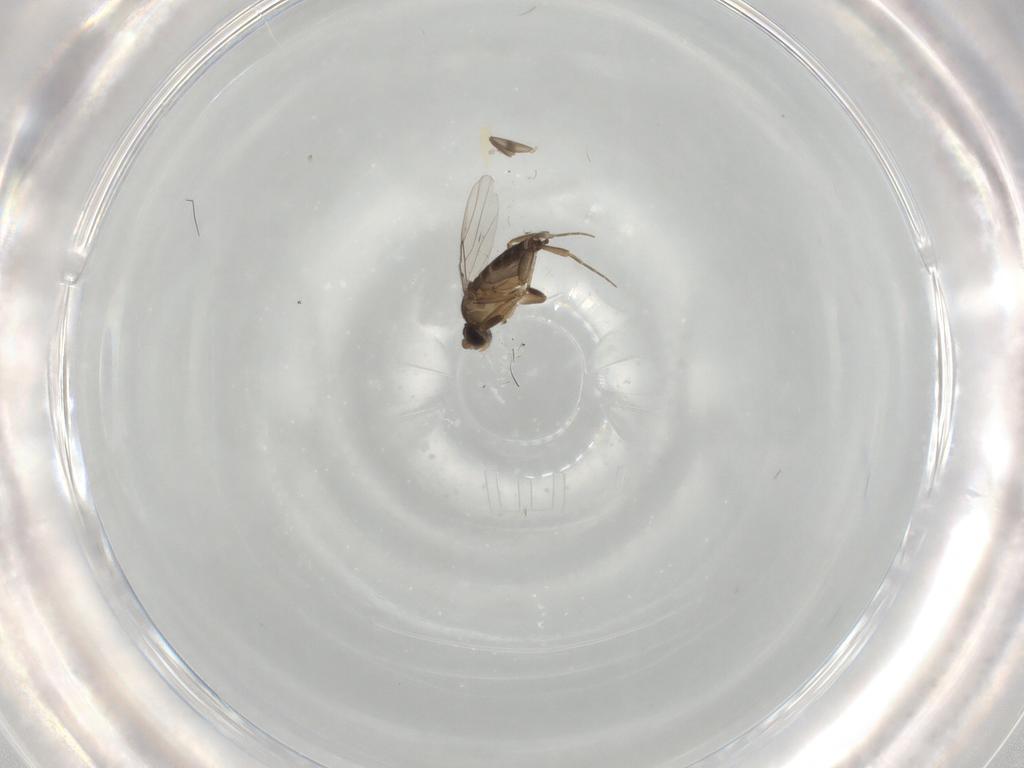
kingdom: Animalia
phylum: Arthropoda
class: Insecta
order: Diptera
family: Phoridae
